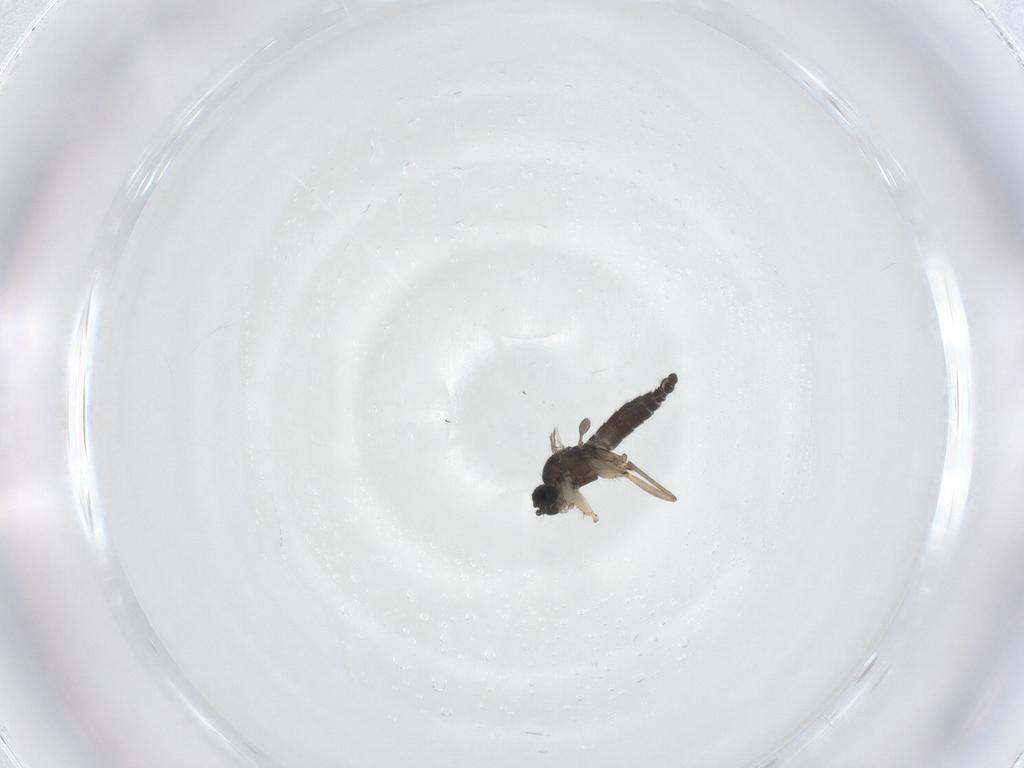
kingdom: Animalia
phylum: Arthropoda
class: Insecta
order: Diptera
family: Sciaridae
